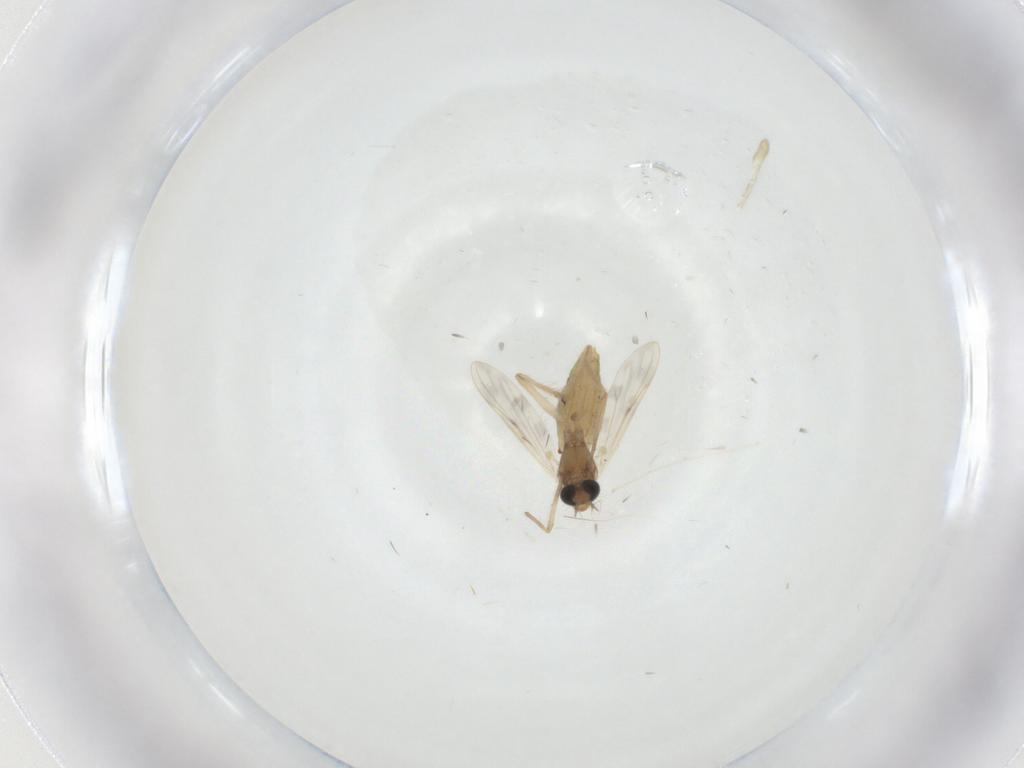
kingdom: Animalia
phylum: Arthropoda
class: Insecta
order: Diptera
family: Chironomidae
